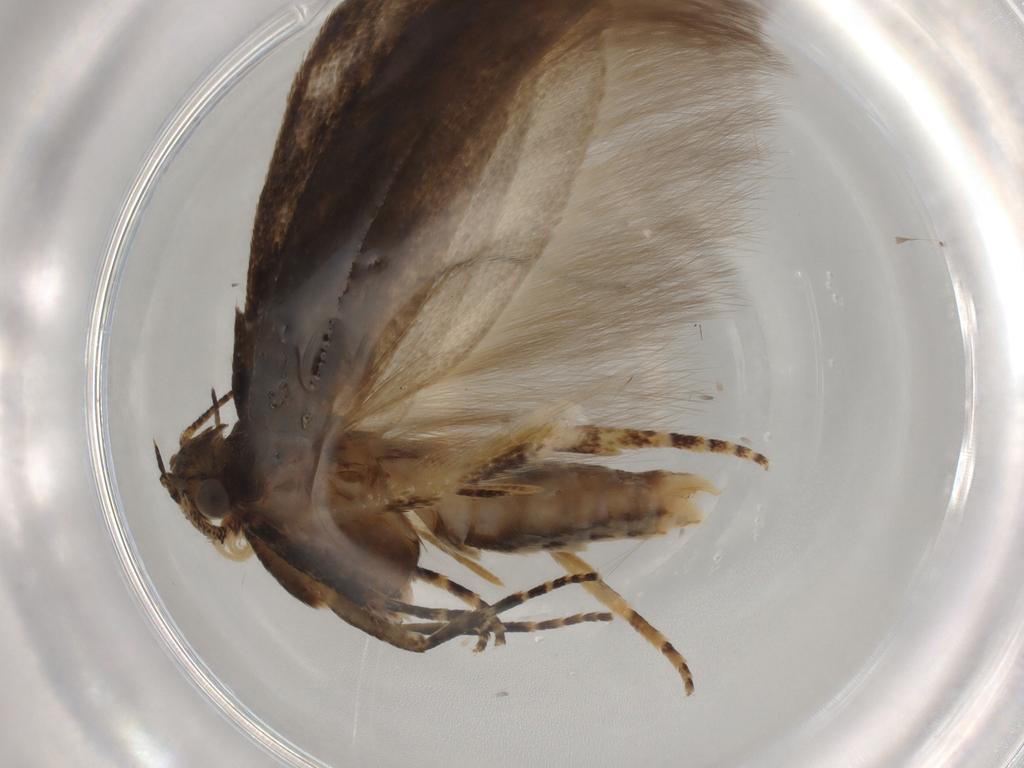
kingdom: Animalia
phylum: Arthropoda
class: Insecta
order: Lepidoptera
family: Gelechiidae
